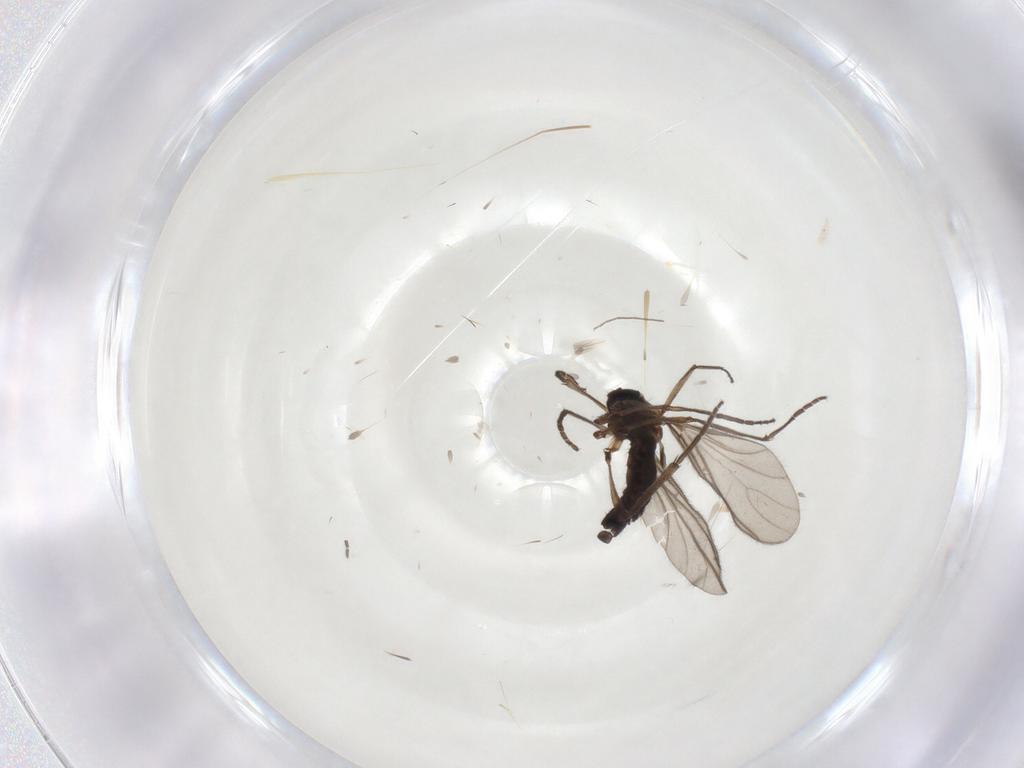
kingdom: Animalia
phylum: Arthropoda
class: Insecta
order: Diptera
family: Sciaridae
